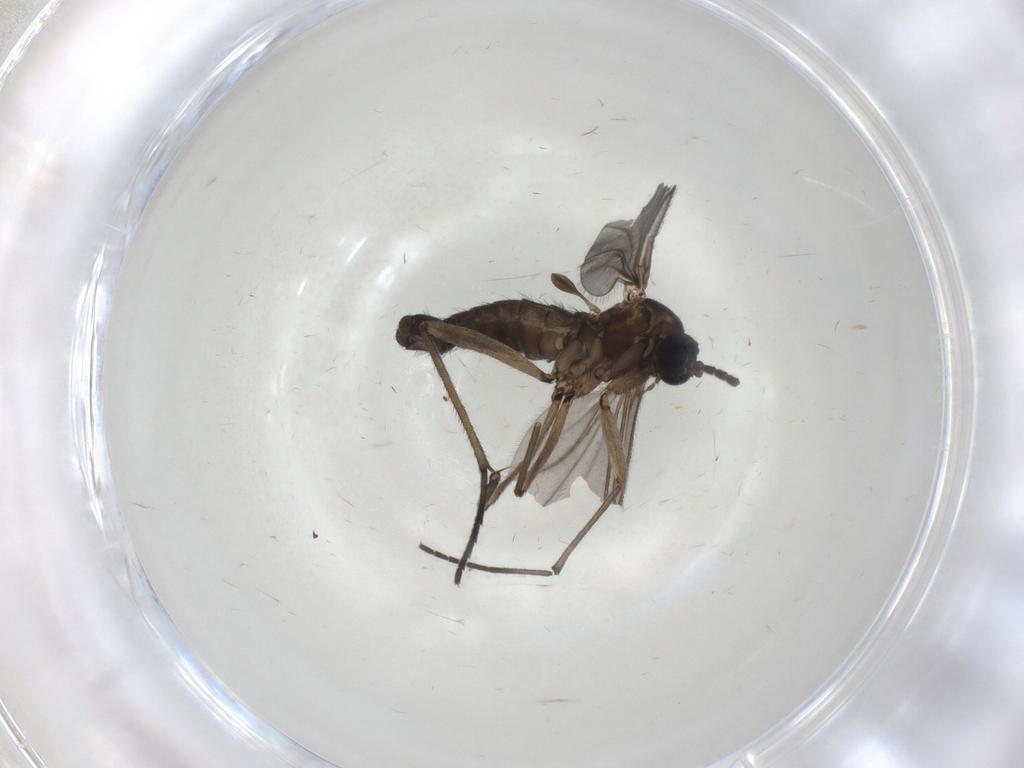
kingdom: Animalia
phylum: Arthropoda
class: Insecta
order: Diptera
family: Sciaridae
